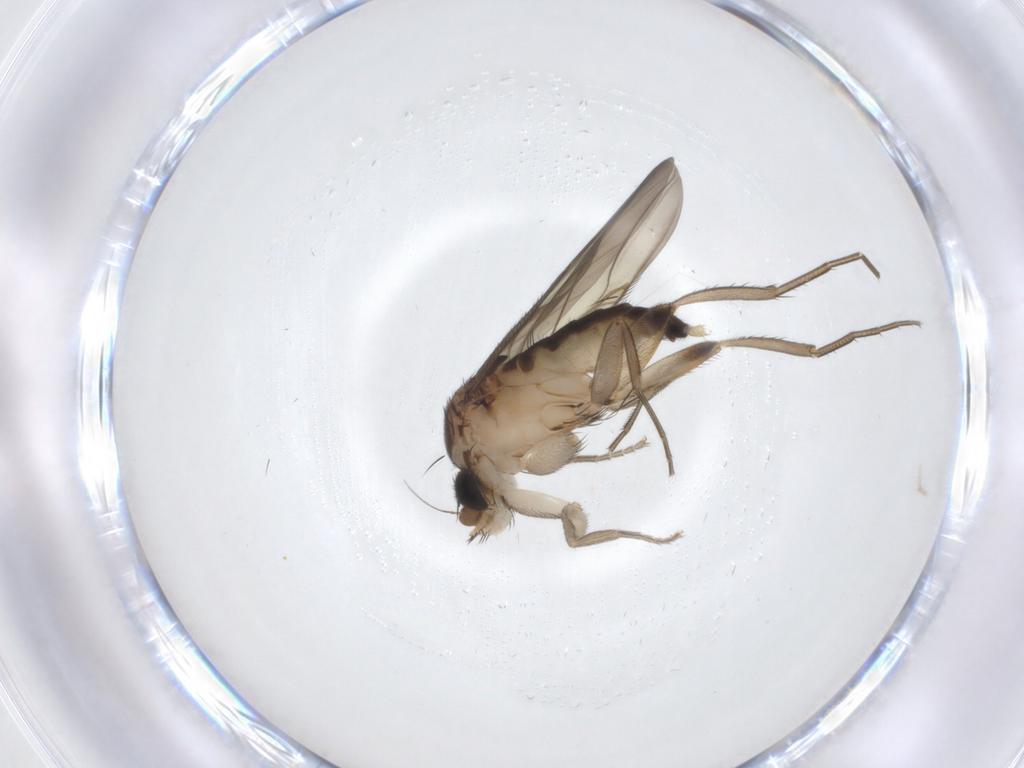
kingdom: Animalia
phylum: Arthropoda
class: Insecta
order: Diptera
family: Phoridae
